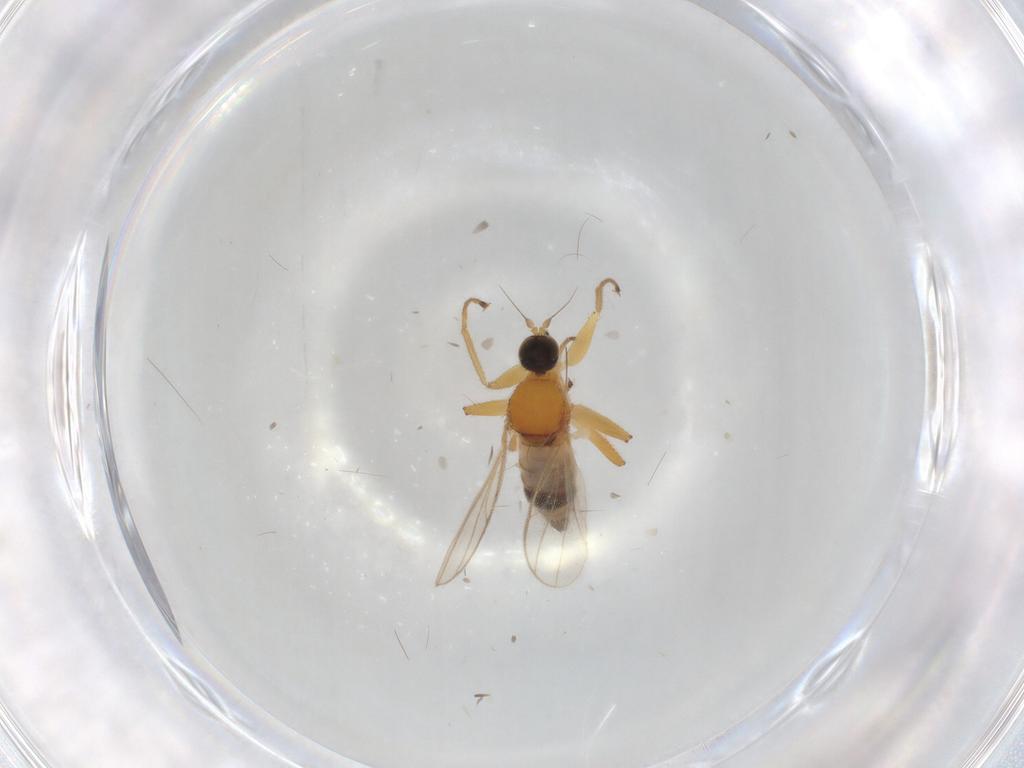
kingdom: Animalia
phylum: Arthropoda
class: Insecta
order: Diptera
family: Hybotidae
